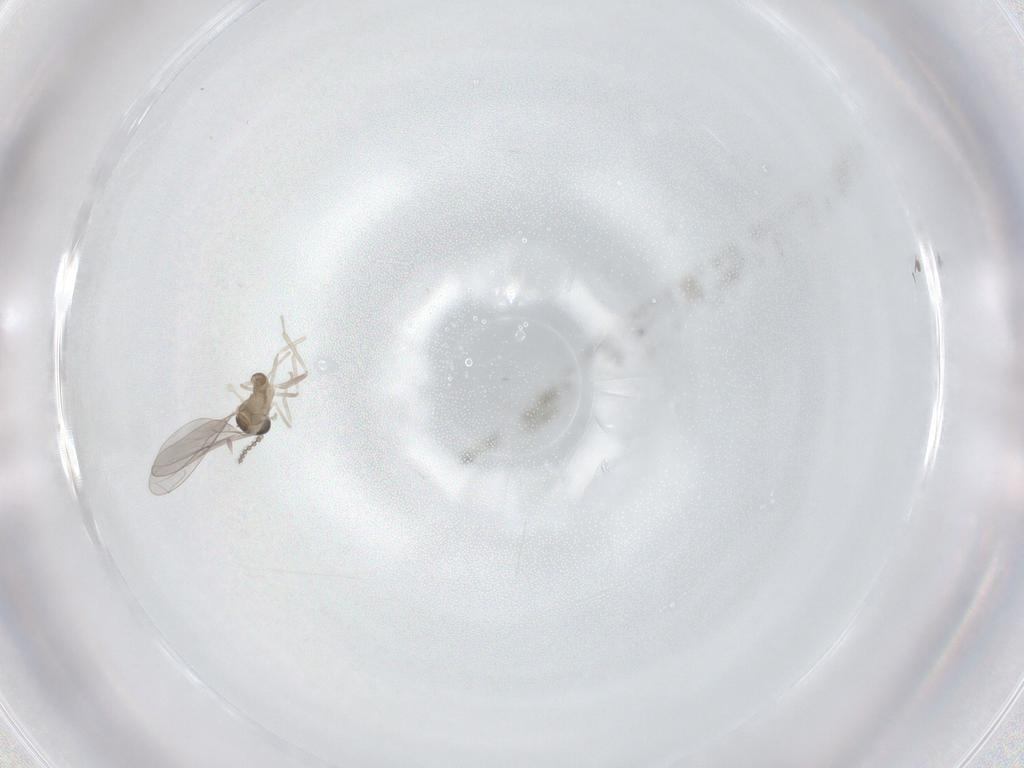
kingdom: Animalia
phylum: Arthropoda
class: Insecta
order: Diptera
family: Cecidomyiidae
